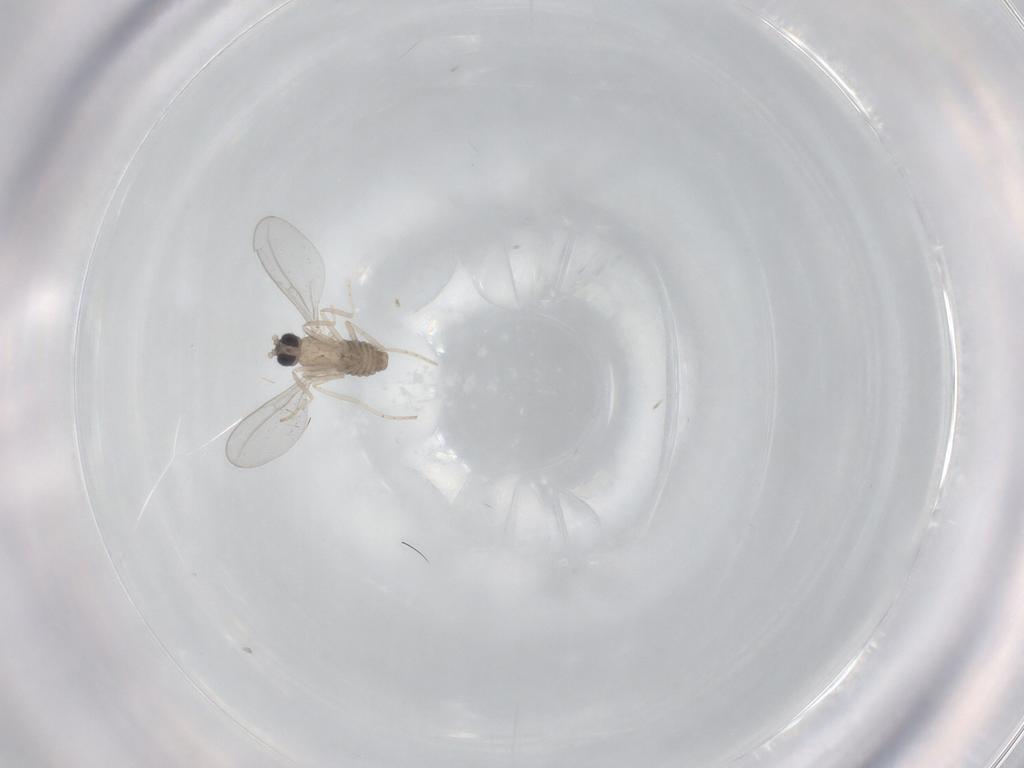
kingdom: Animalia
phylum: Arthropoda
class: Insecta
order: Diptera
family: Cecidomyiidae
